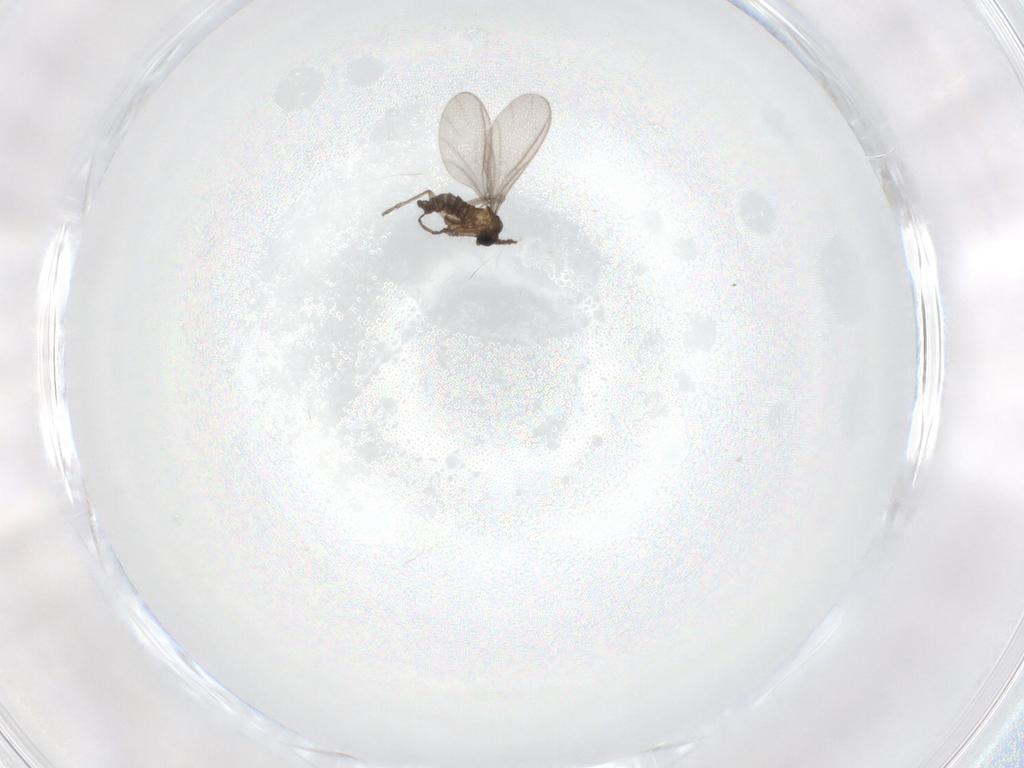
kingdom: Animalia
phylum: Arthropoda
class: Insecta
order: Diptera
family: Sciaridae
